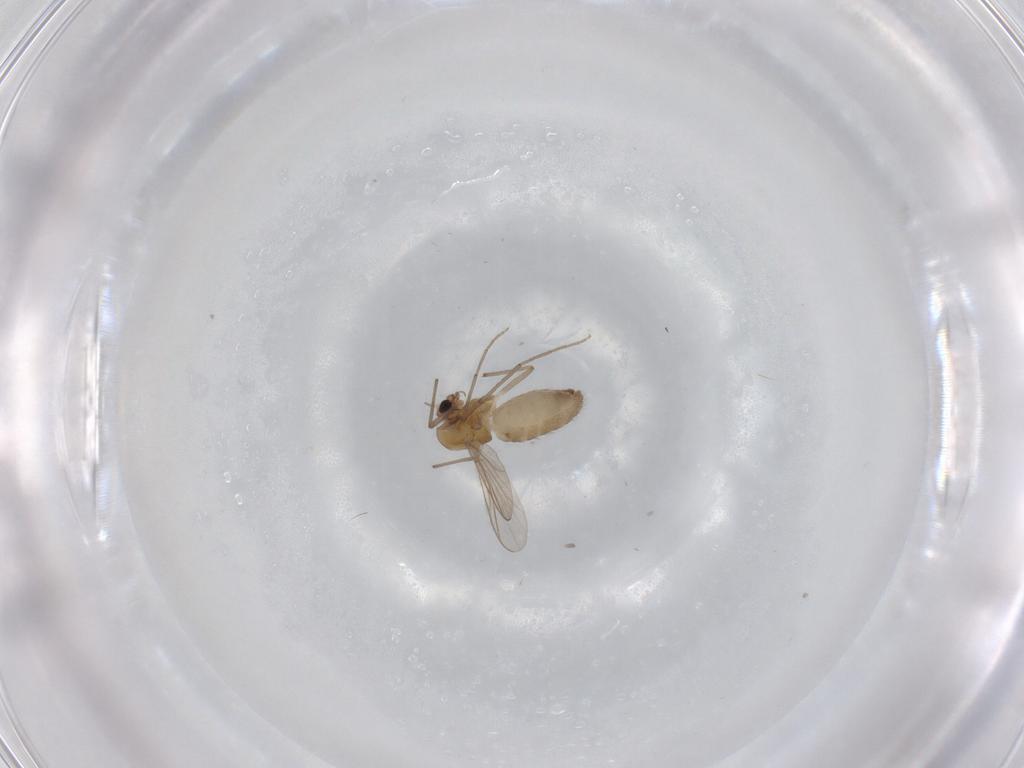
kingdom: Animalia
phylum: Arthropoda
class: Insecta
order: Diptera
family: Chironomidae
